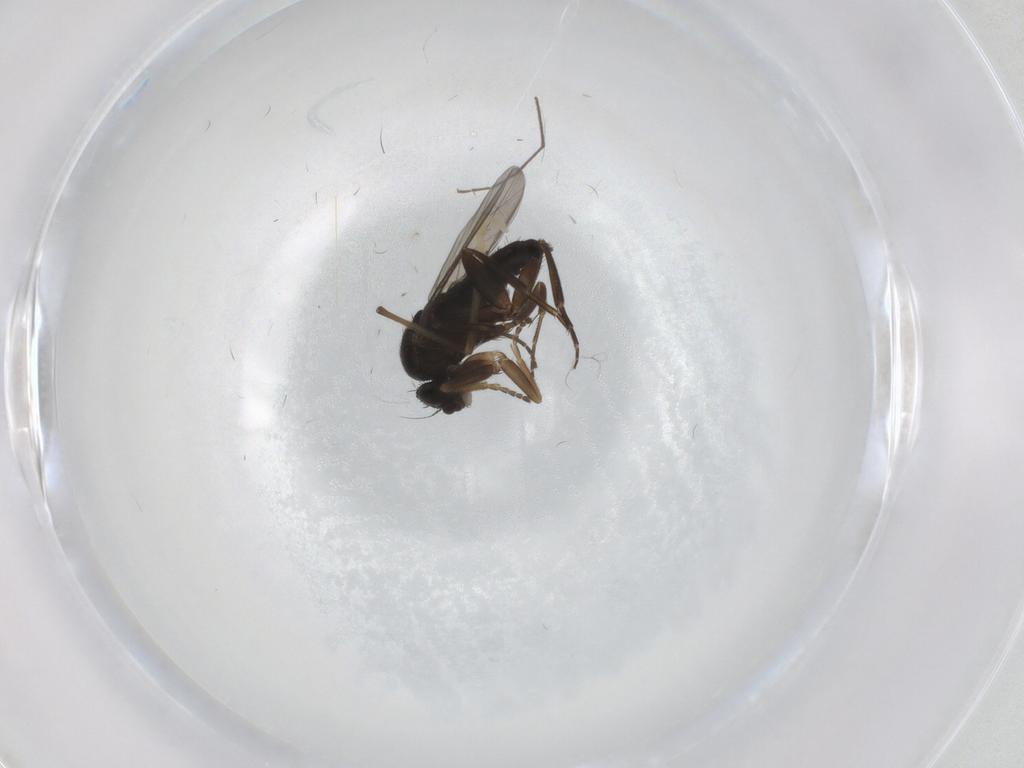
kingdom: Animalia
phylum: Arthropoda
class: Insecta
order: Diptera
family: Phoridae
